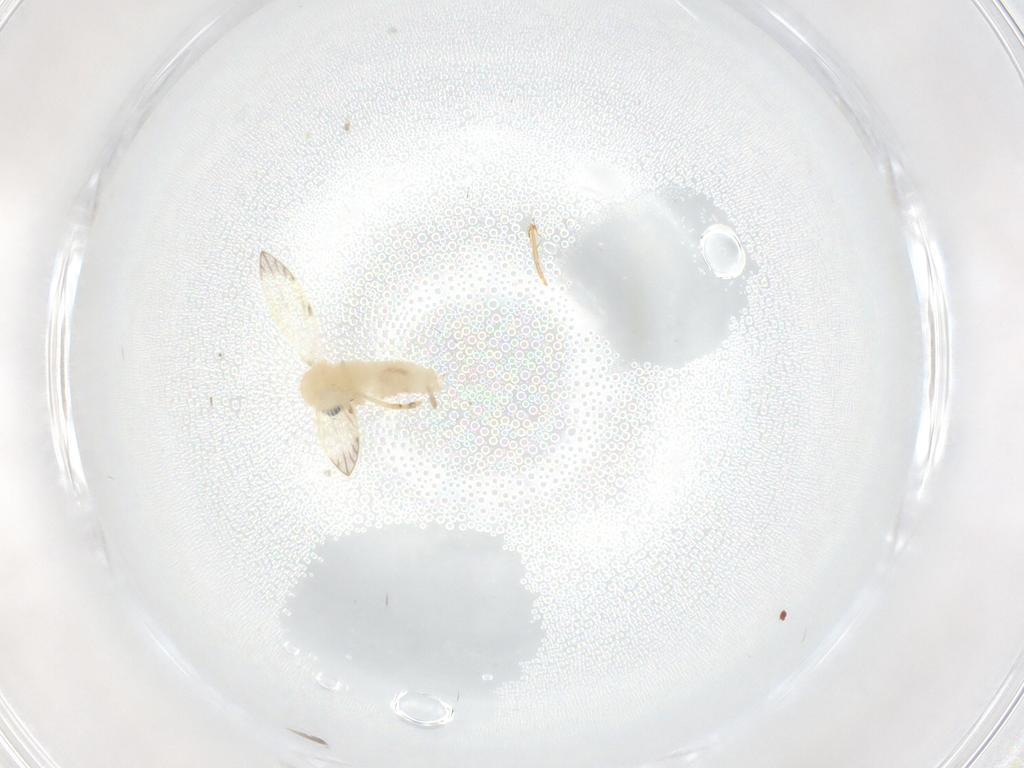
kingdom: Animalia
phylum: Arthropoda
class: Insecta
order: Diptera
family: Psychodidae
